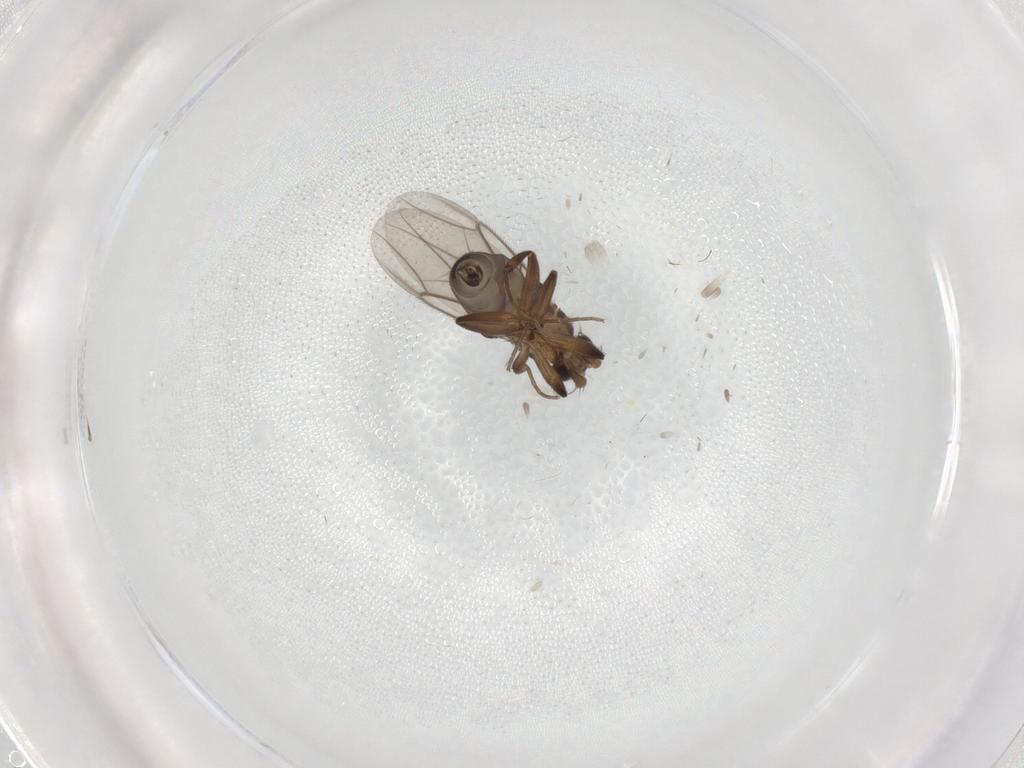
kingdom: Animalia
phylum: Arthropoda
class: Insecta
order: Diptera
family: Phoridae
